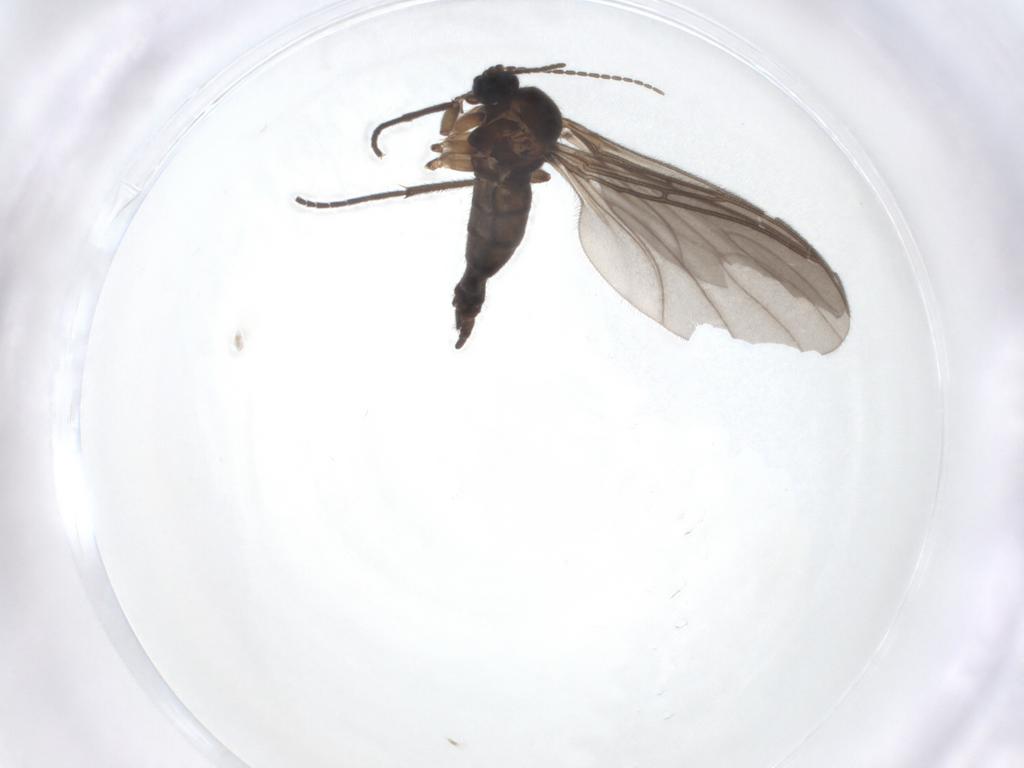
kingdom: Animalia
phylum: Arthropoda
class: Insecta
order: Diptera
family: Sciaridae
